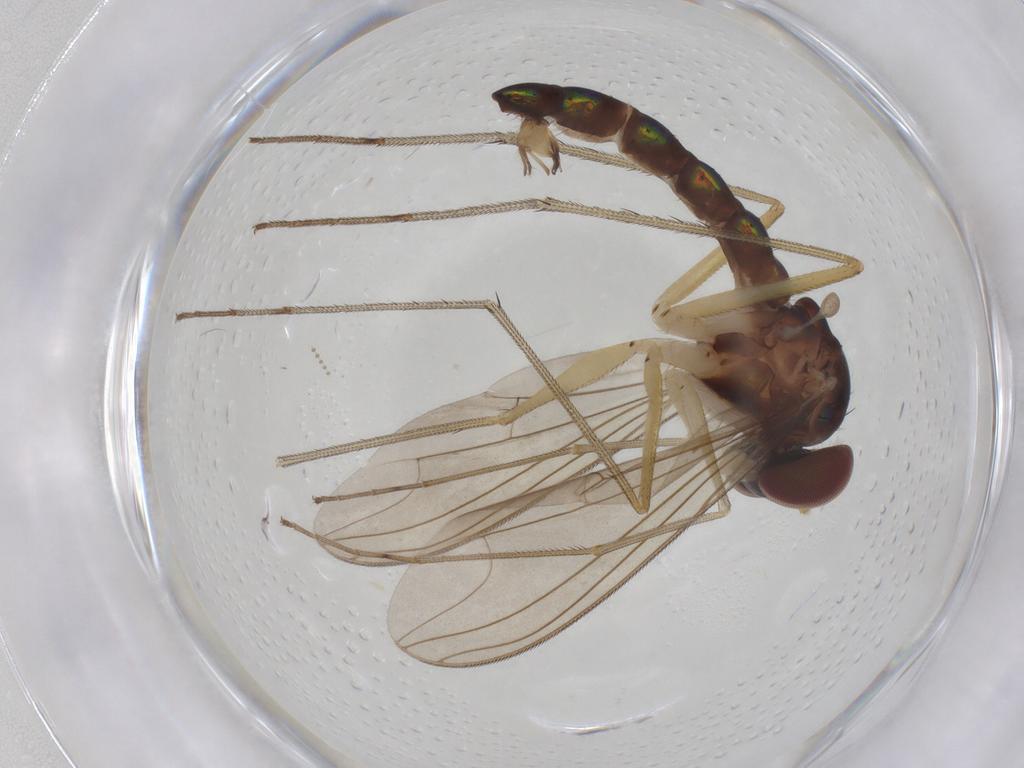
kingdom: Animalia
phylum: Arthropoda
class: Insecta
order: Diptera
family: Dolichopodidae
